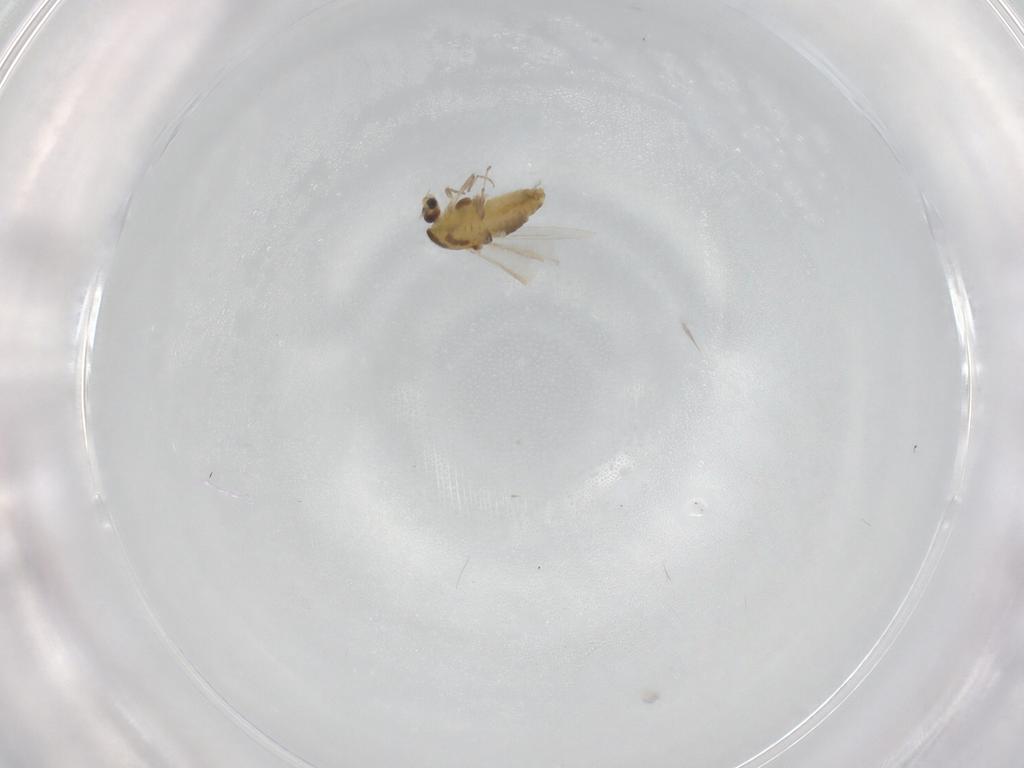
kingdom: Animalia
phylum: Arthropoda
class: Insecta
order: Diptera
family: Chironomidae
